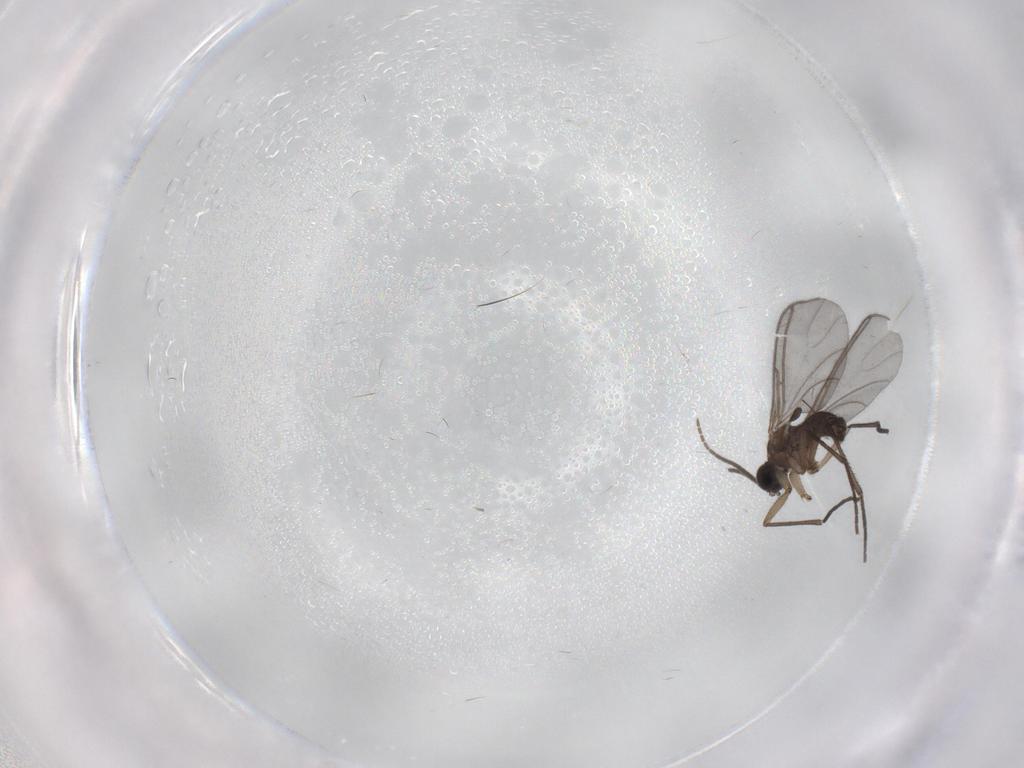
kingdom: Animalia
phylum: Arthropoda
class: Insecta
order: Diptera
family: Sciaridae
